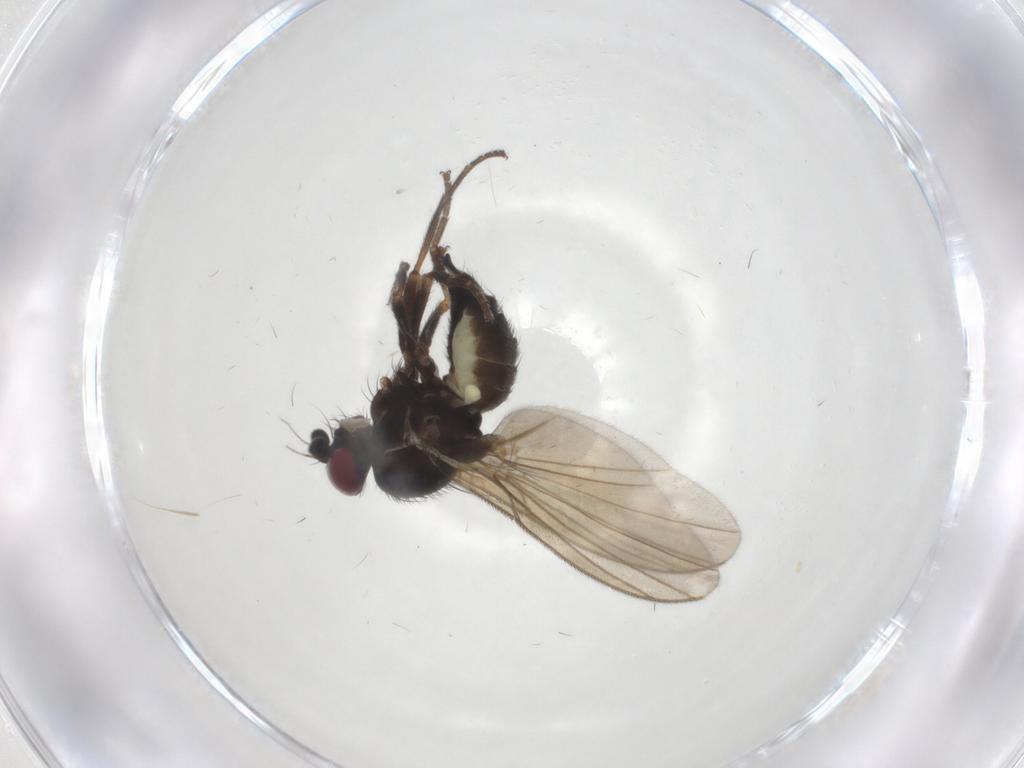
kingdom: Animalia
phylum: Arthropoda
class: Insecta
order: Diptera
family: Agromyzidae
